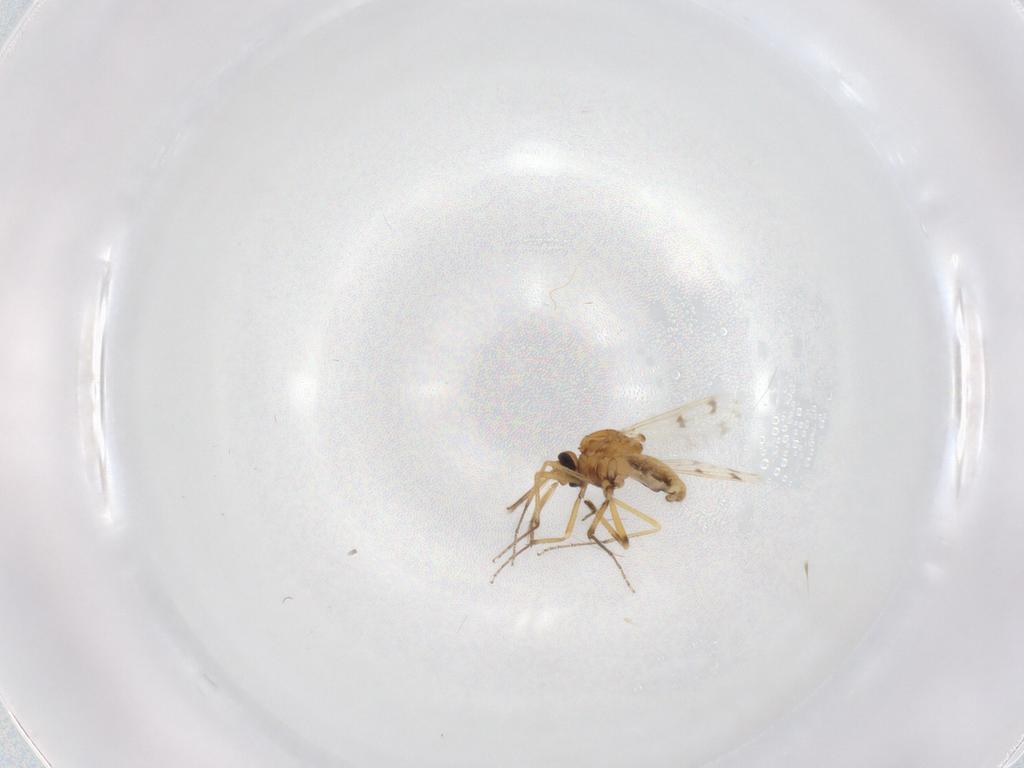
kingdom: Animalia
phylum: Arthropoda
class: Insecta
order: Diptera
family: Ceratopogonidae
